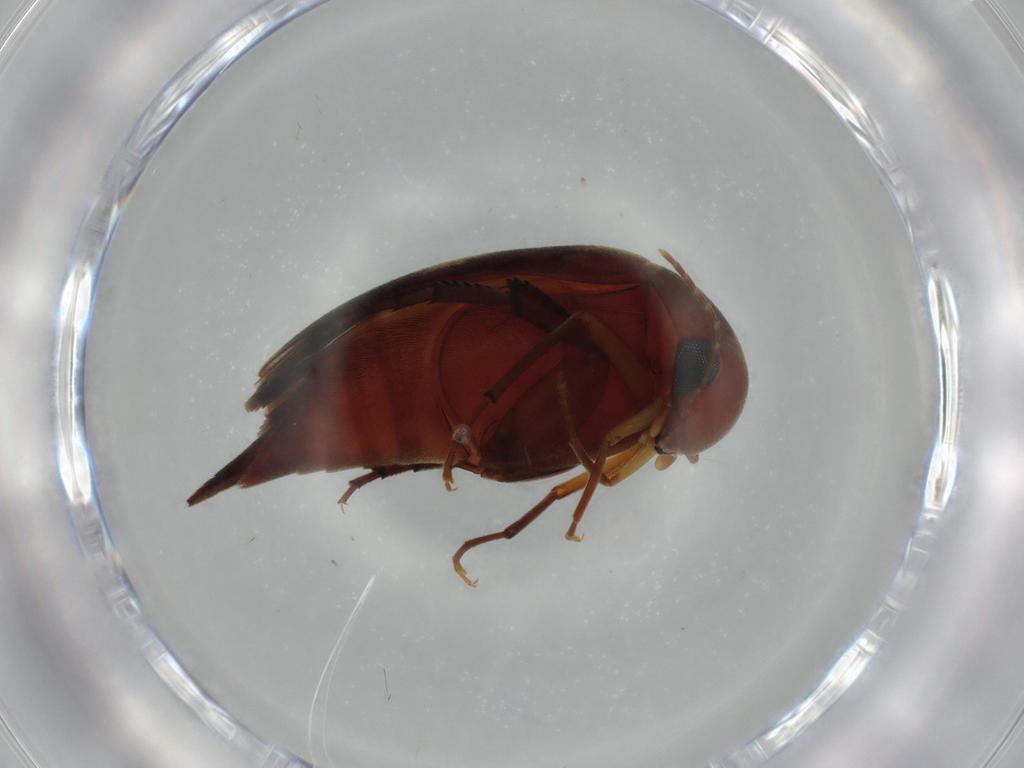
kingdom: Animalia
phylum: Arthropoda
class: Insecta
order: Coleoptera
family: Mordellidae
